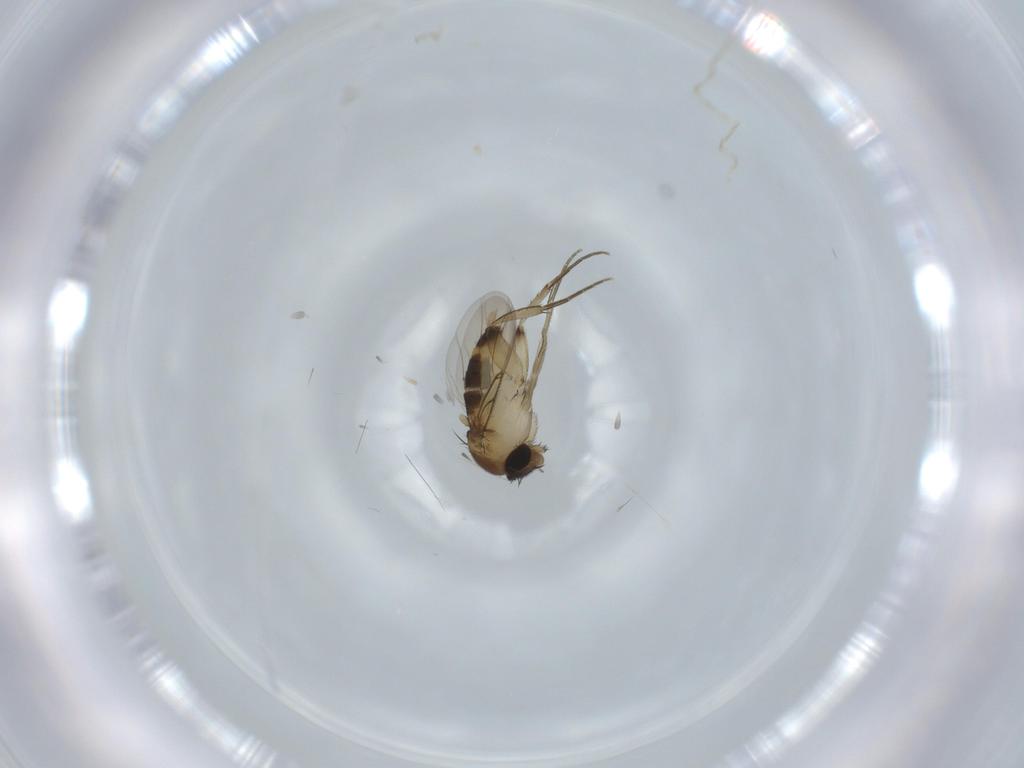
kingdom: Animalia
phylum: Arthropoda
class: Insecta
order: Diptera
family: Phoridae
